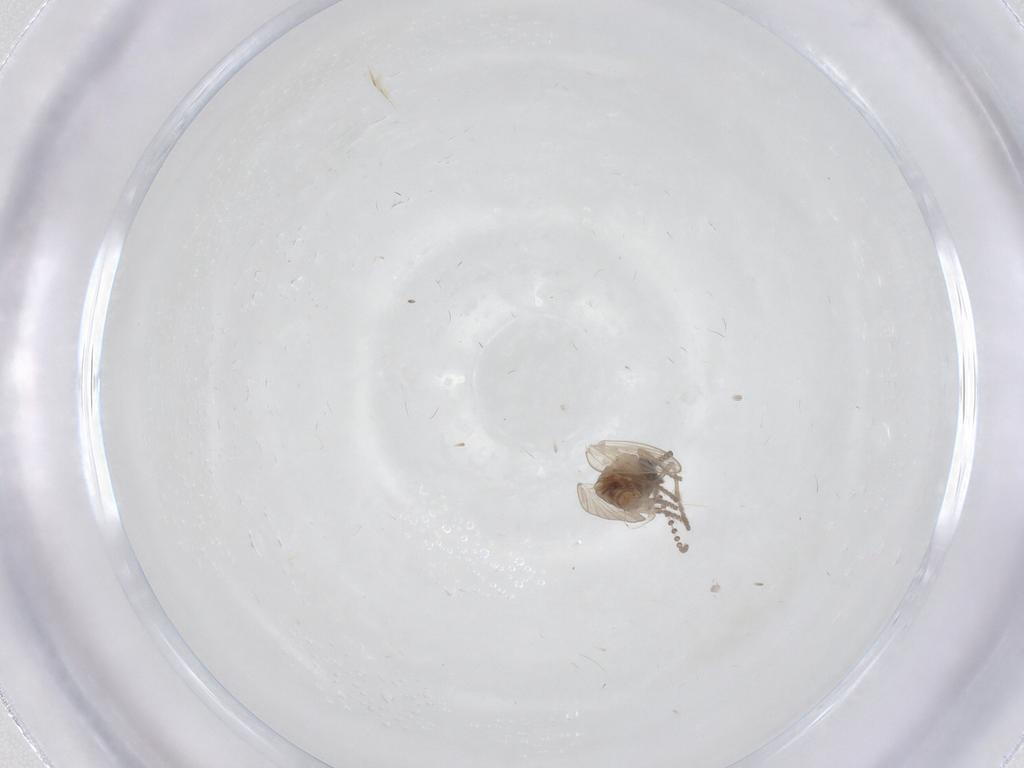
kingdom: Animalia
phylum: Arthropoda
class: Insecta
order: Diptera
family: Psychodidae
